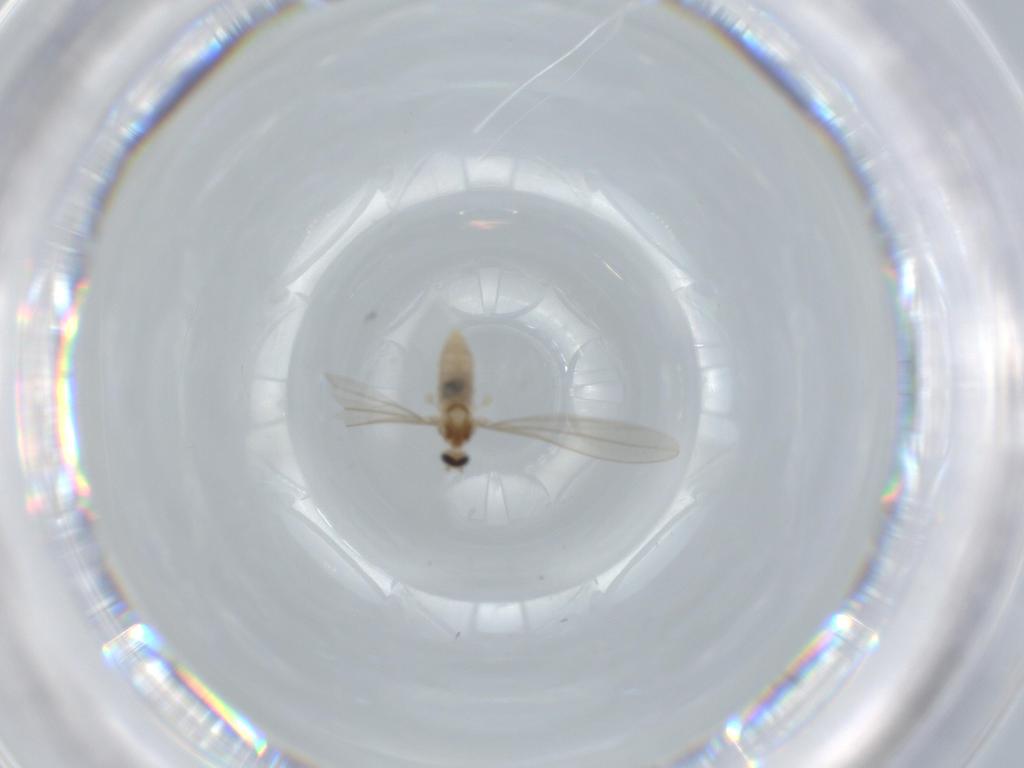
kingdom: Animalia
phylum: Arthropoda
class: Insecta
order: Diptera
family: Cecidomyiidae
